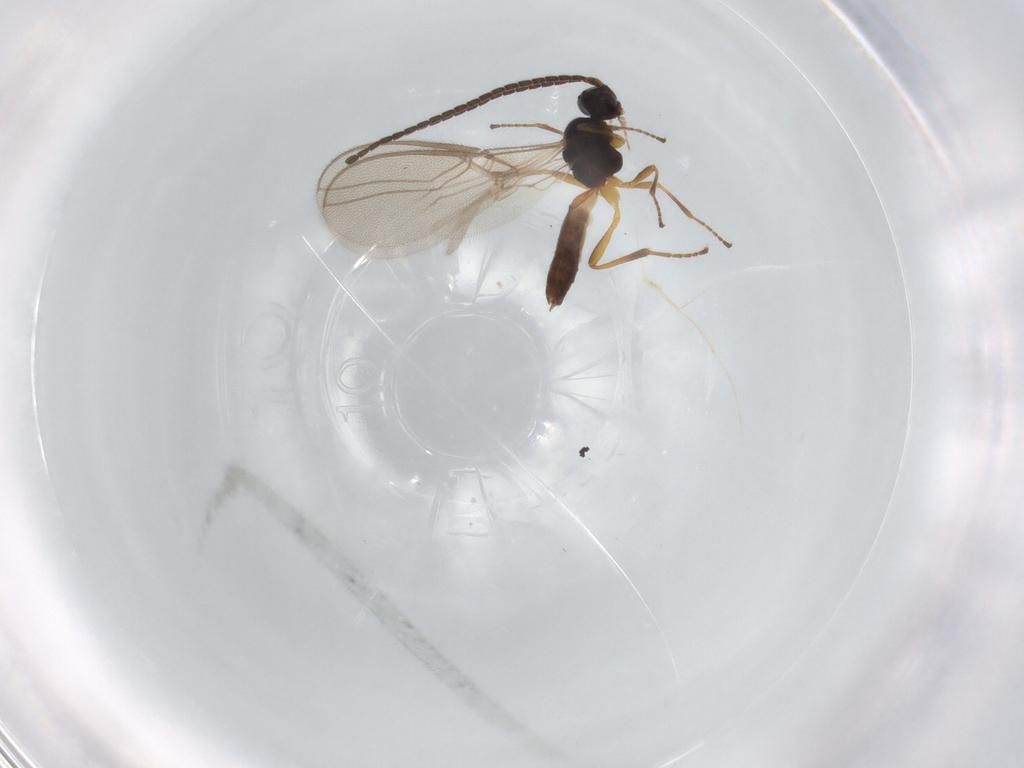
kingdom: Animalia
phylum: Arthropoda
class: Insecta
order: Hymenoptera
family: Braconidae
